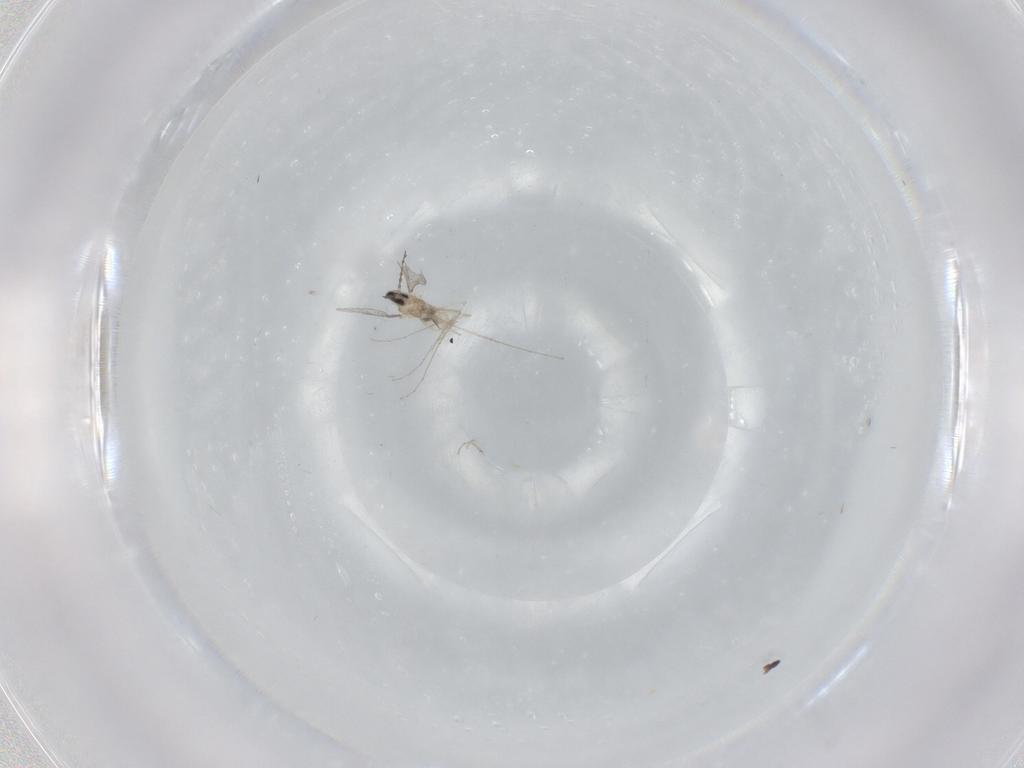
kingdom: Animalia
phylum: Arthropoda
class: Insecta
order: Diptera
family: Cecidomyiidae
